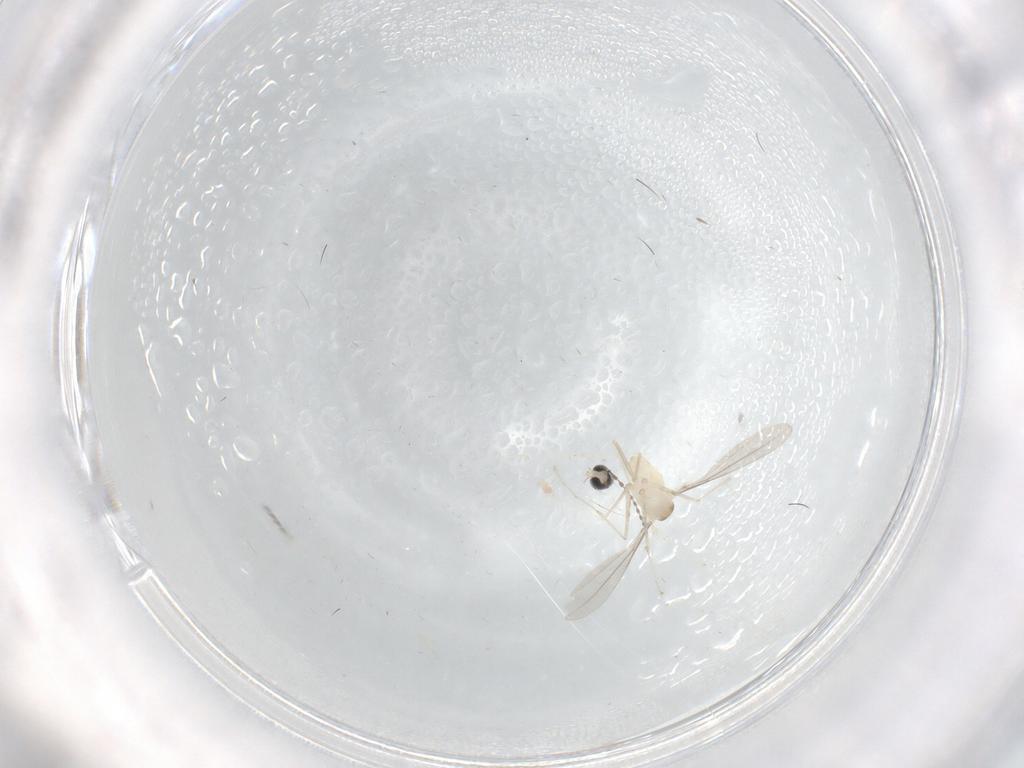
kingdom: Animalia
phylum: Arthropoda
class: Insecta
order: Diptera
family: Cecidomyiidae
